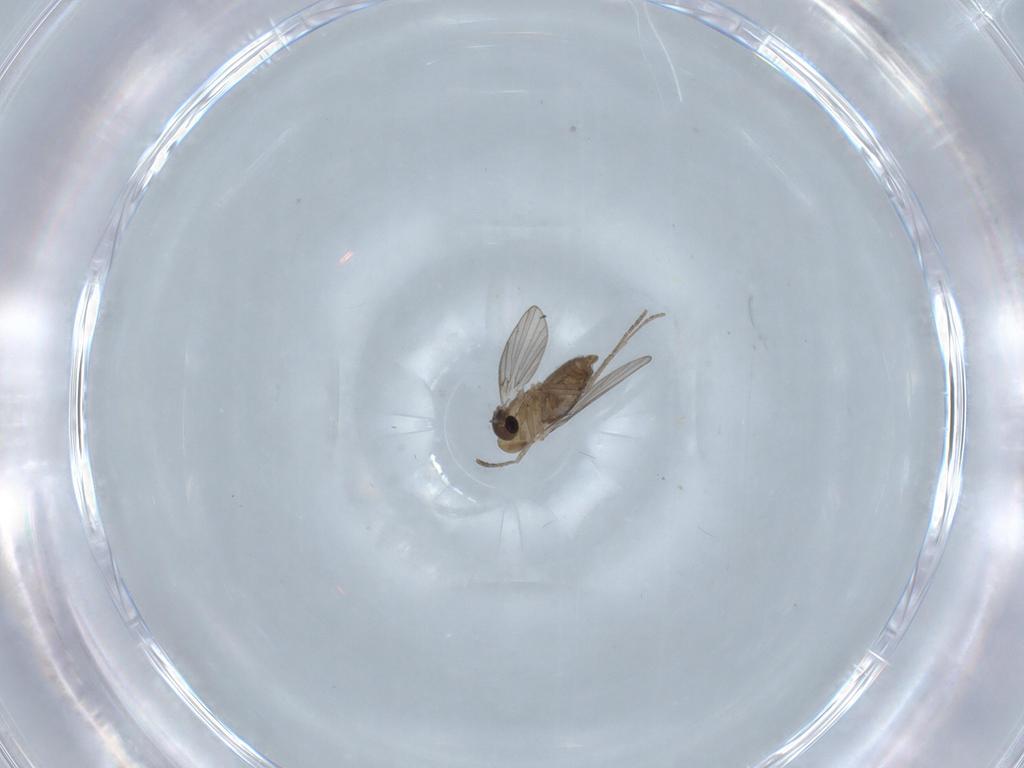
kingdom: Animalia
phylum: Arthropoda
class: Insecta
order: Diptera
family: Psychodidae
